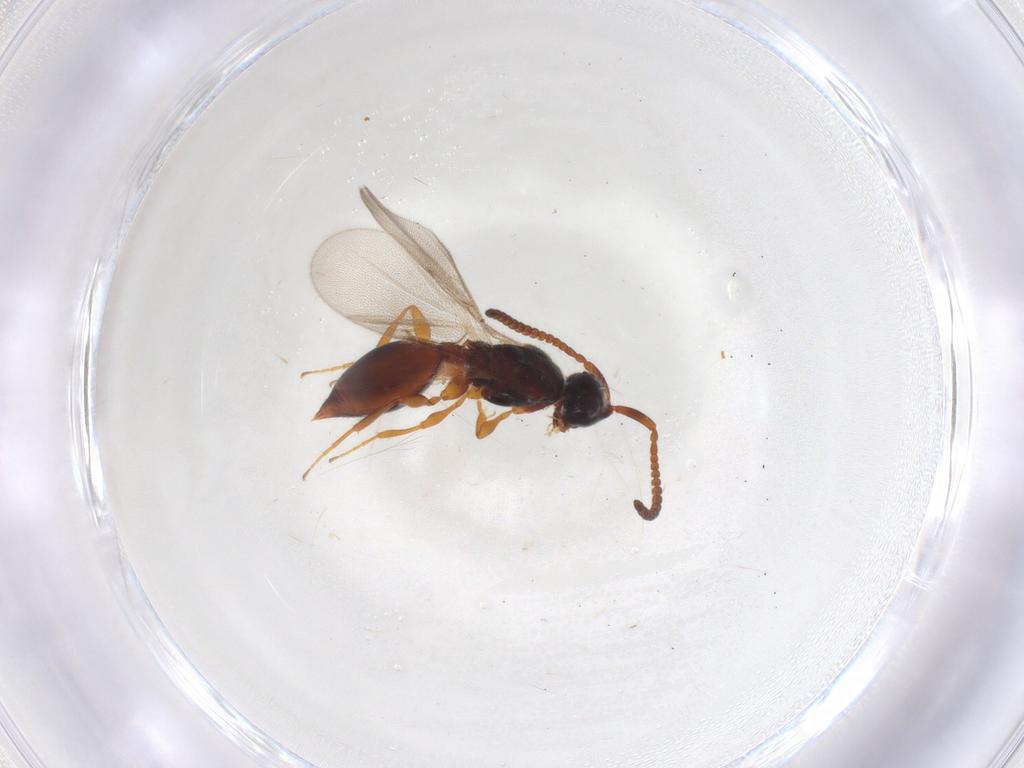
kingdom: Animalia
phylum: Arthropoda
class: Insecta
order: Hymenoptera
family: Diapriidae
